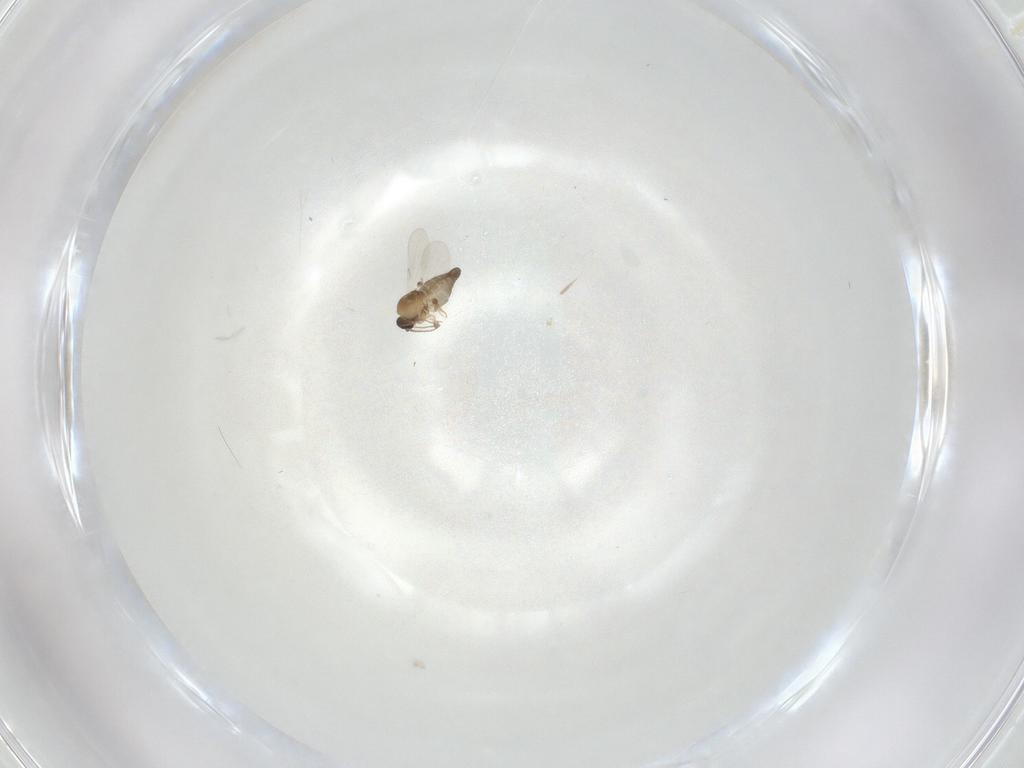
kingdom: Animalia
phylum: Arthropoda
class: Insecta
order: Diptera
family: Ceratopogonidae
